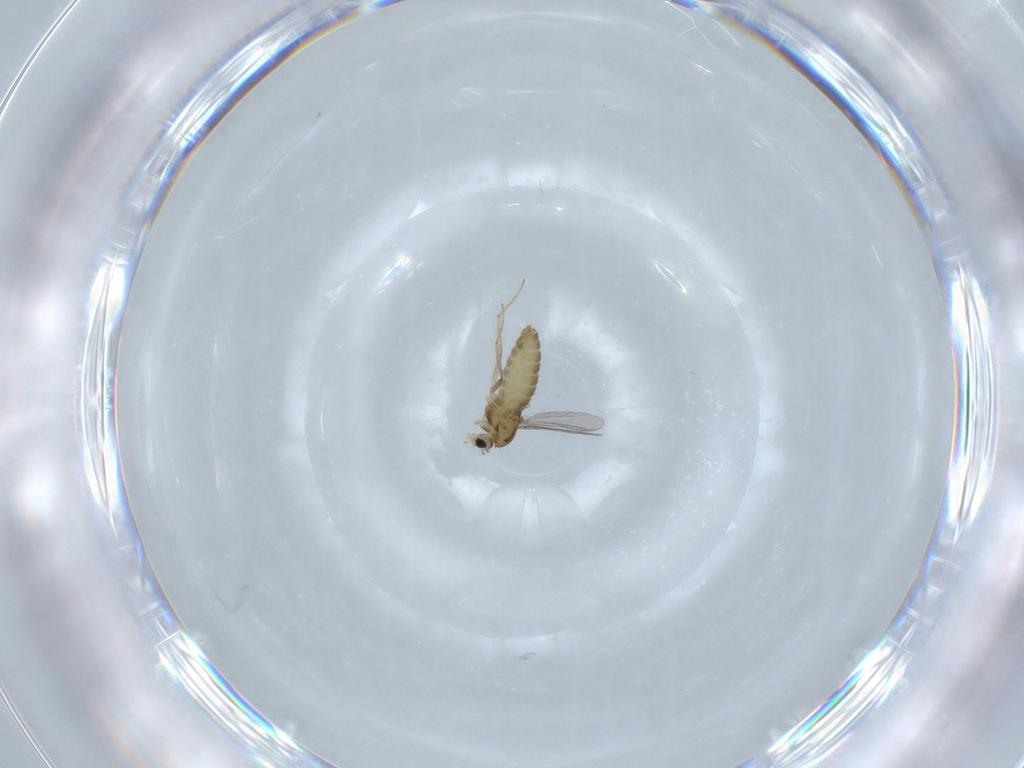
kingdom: Animalia
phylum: Arthropoda
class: Insecta
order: Diptera
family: Chironomidae
